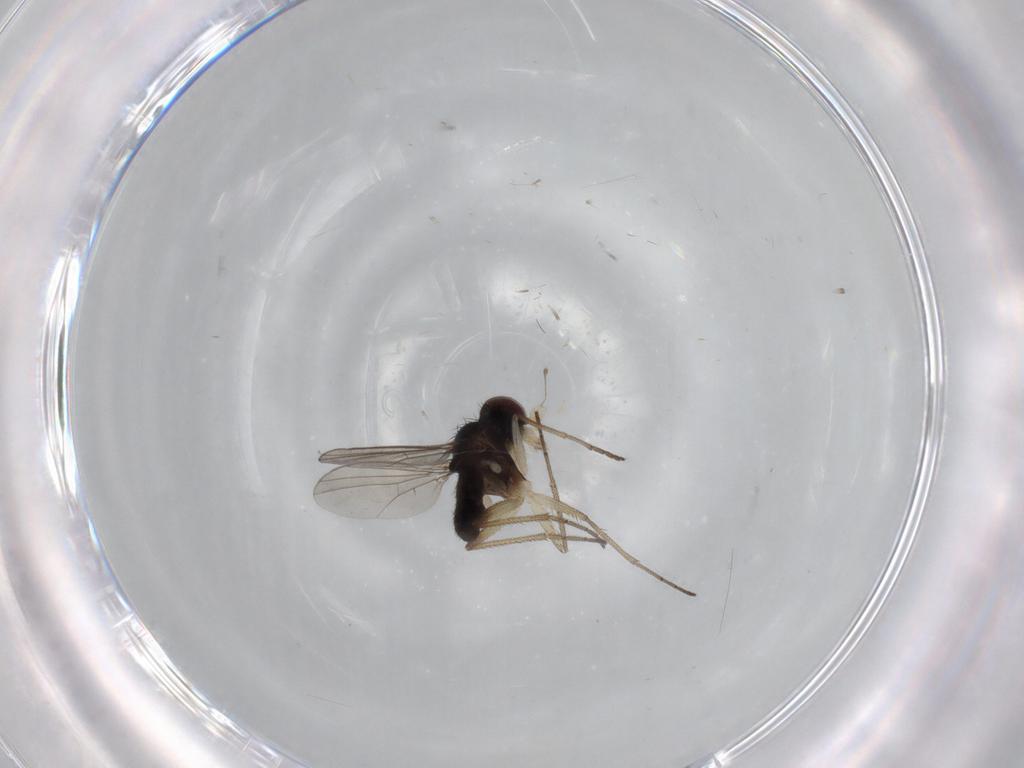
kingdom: Animalia
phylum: Arthropoda
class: Insecta
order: Diptera
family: Dolichopodidae
